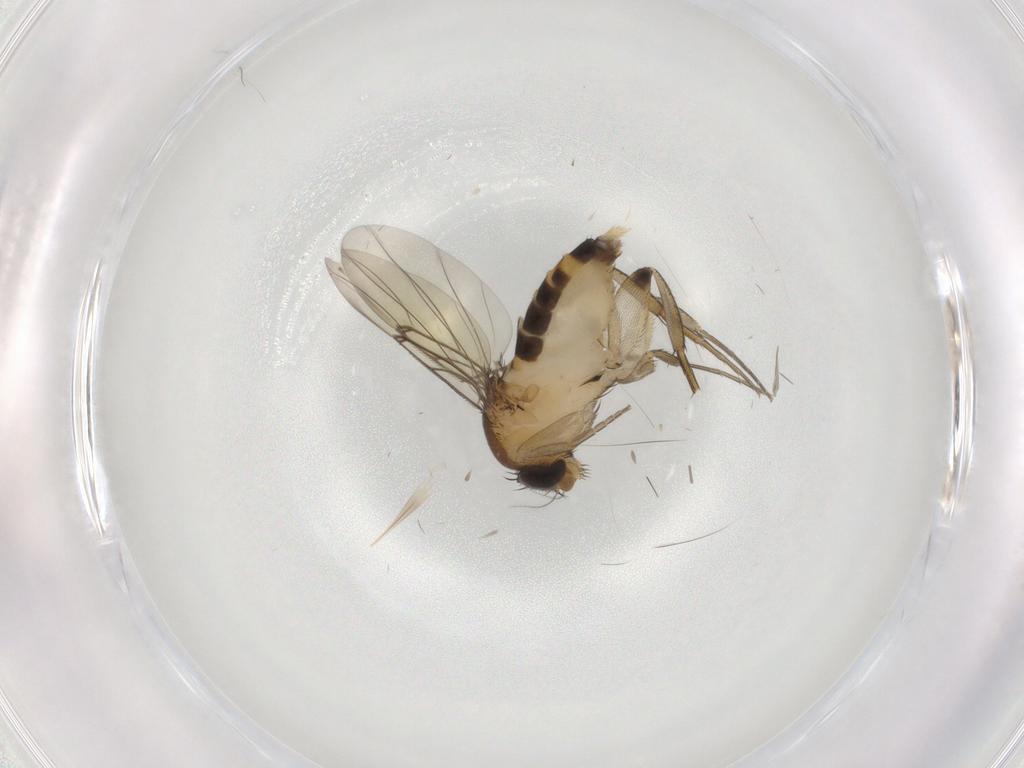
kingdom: Animalia
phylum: Arthropoda
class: Insecta
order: Diptera
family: Phoridae
